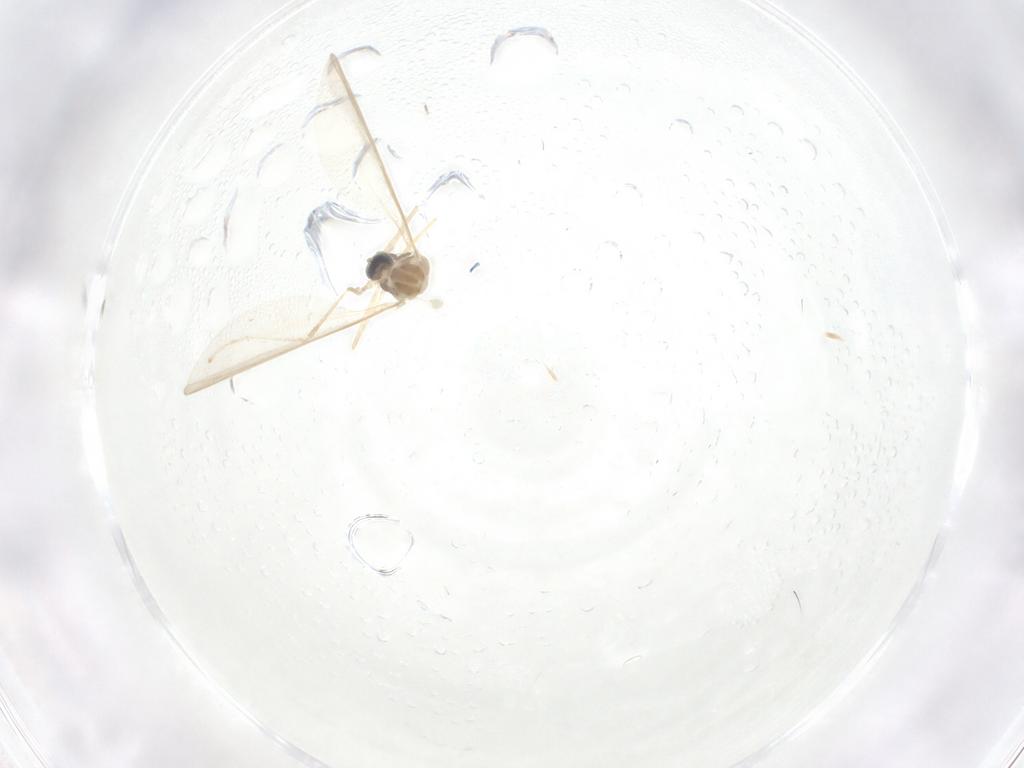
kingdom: Animalia
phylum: Arthropoda
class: Insecta
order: Diptera
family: Cecidomyiidae
